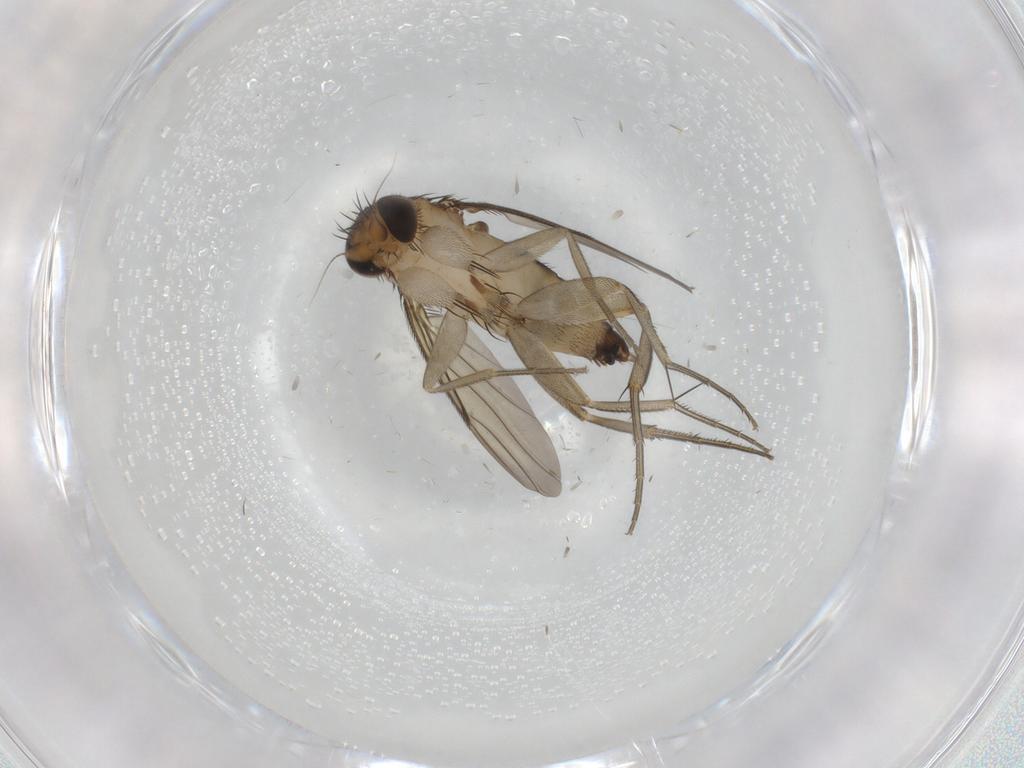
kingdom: Animalia
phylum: Arthropoda
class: Insecta
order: Diptera
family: Phoridae
